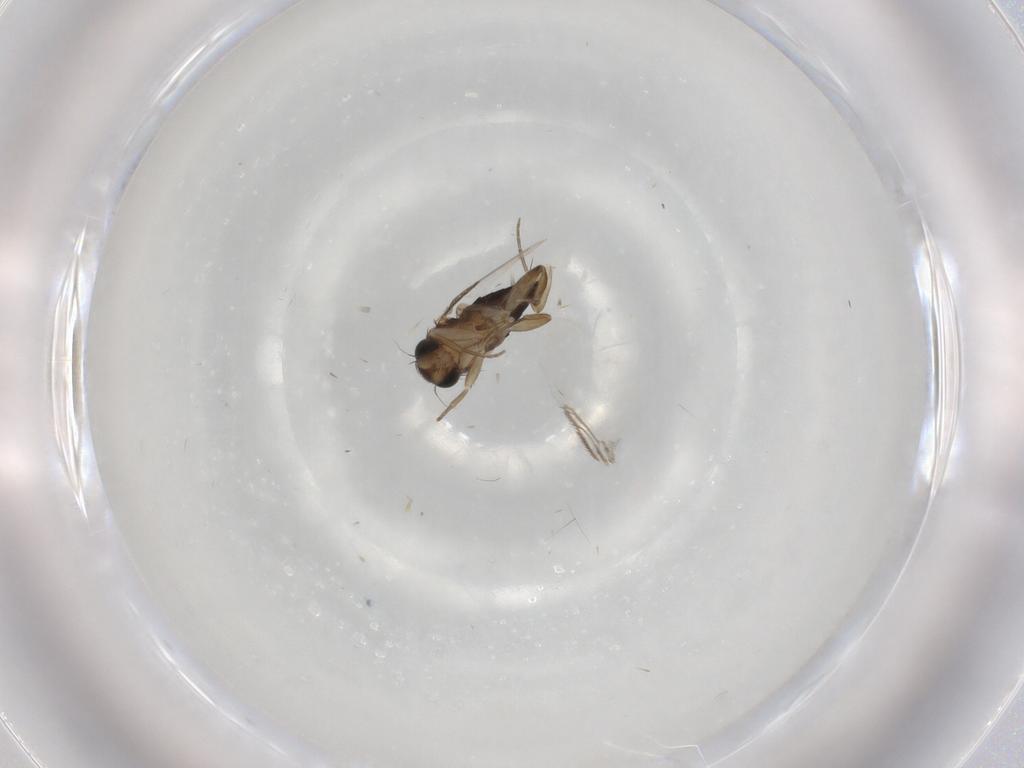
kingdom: Animalia
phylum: Arthropoda
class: Insecta
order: Diptera
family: Phoridae
